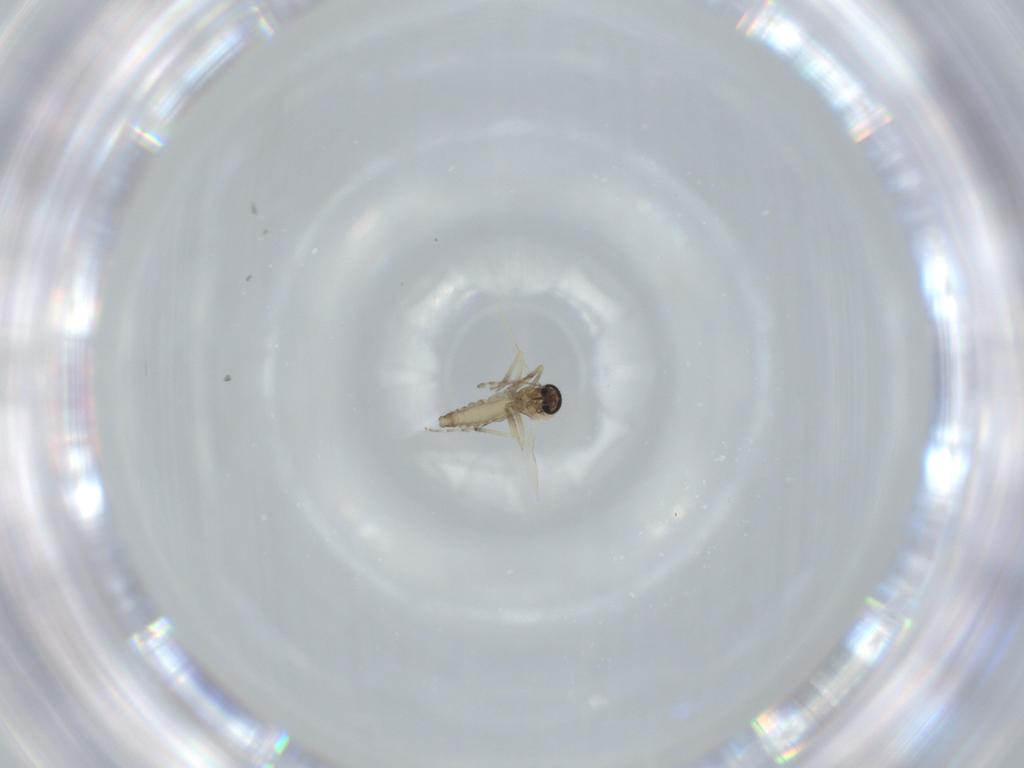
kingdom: Animalia
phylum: Arthropoda
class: Insecta
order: Diptera
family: Ceratopogonidae
